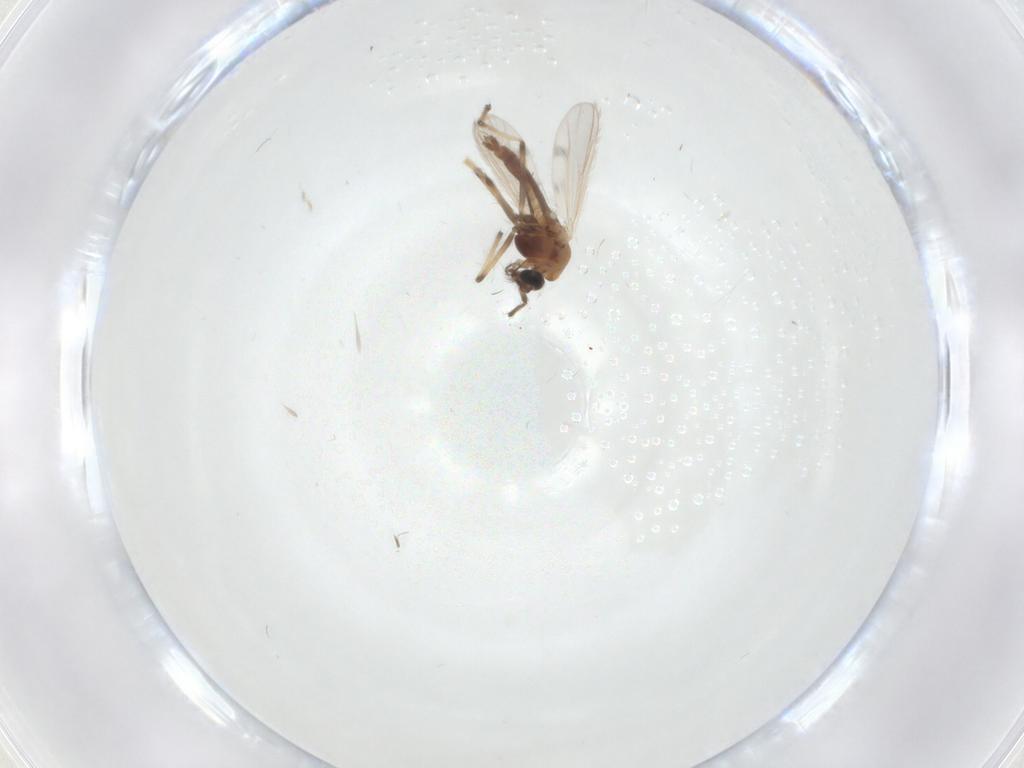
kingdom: Animalia
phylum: Arthropoda
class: Insecta
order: Diptera
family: Chironomidae
